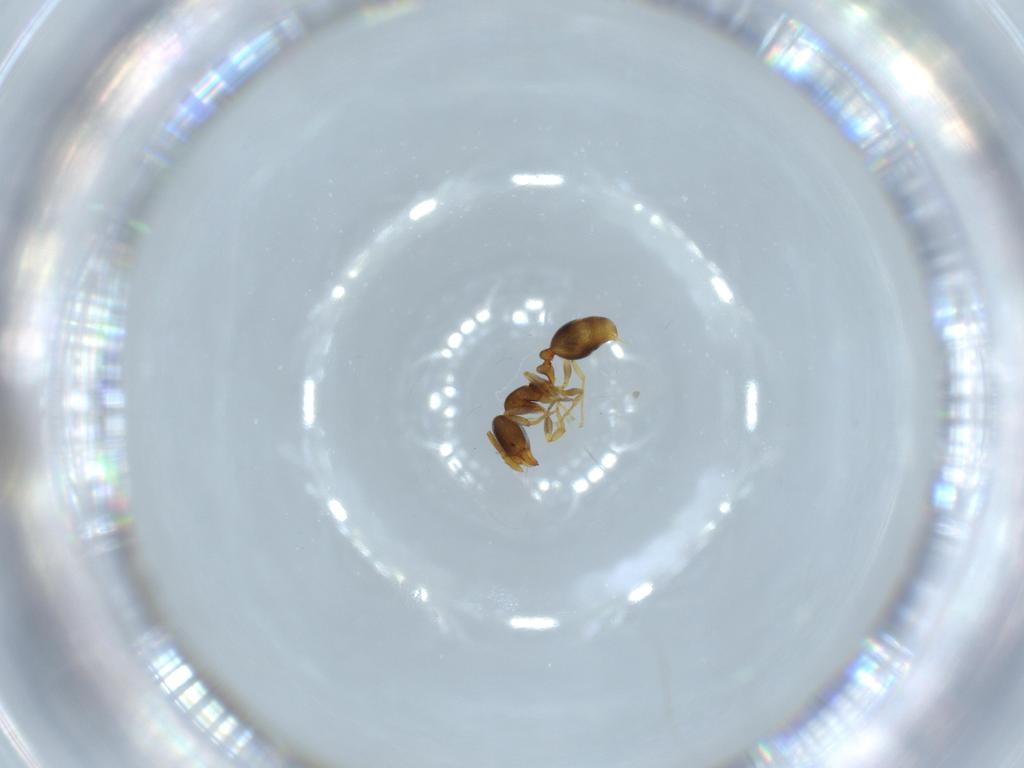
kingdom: Animalia
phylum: Arthropoda
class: Insecta
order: Hymenoptera
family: Formicidae
